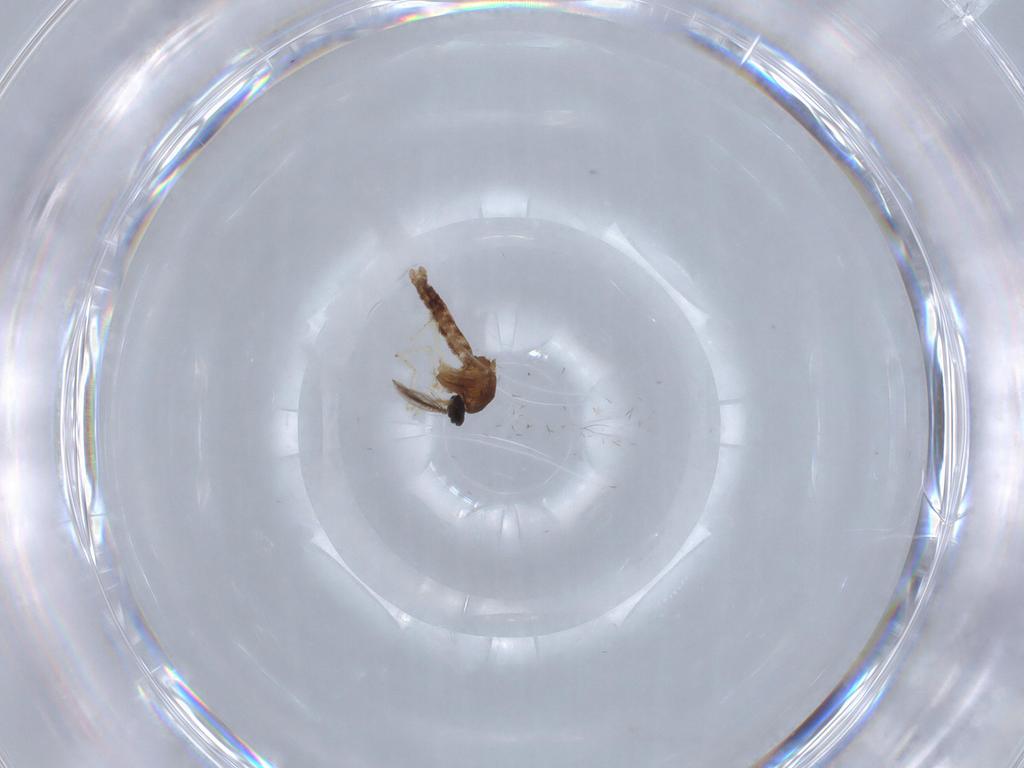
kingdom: Animalia
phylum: Arthropoda
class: Insecta
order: Diptera
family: Ceratopogonidae
